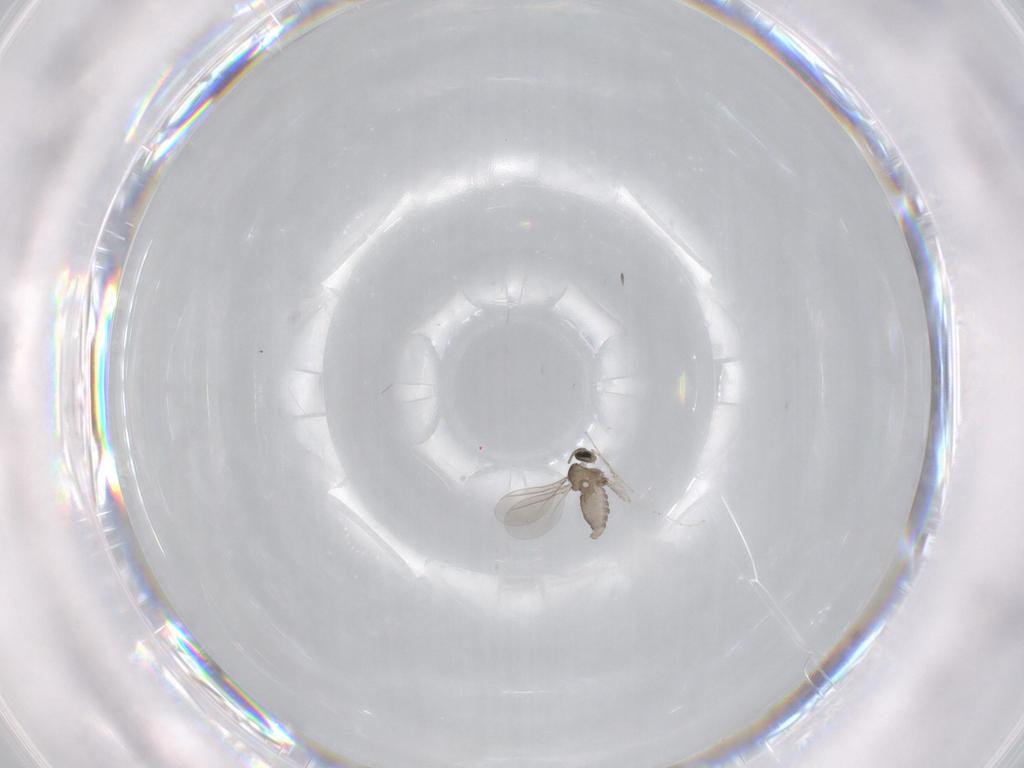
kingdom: Animalia
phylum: Arthropoda
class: Insecta
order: Diptera
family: Cecidomyiidae
